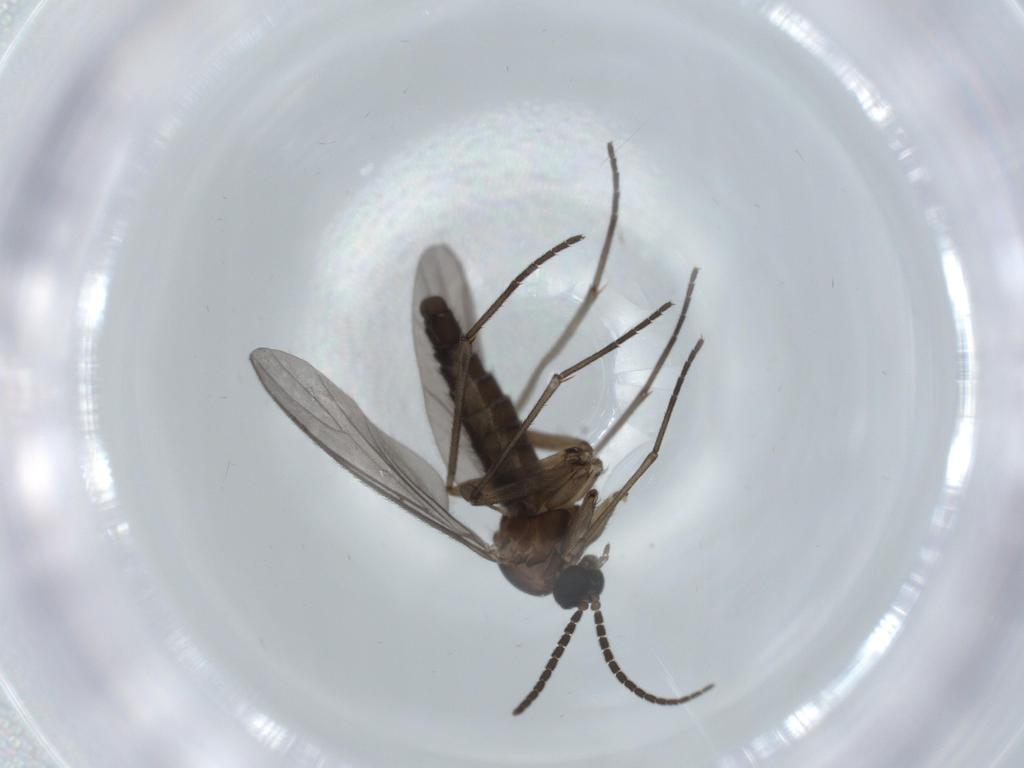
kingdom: Animalia
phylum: Arthropoda
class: Insecta
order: Diptera
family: Sciaridae
